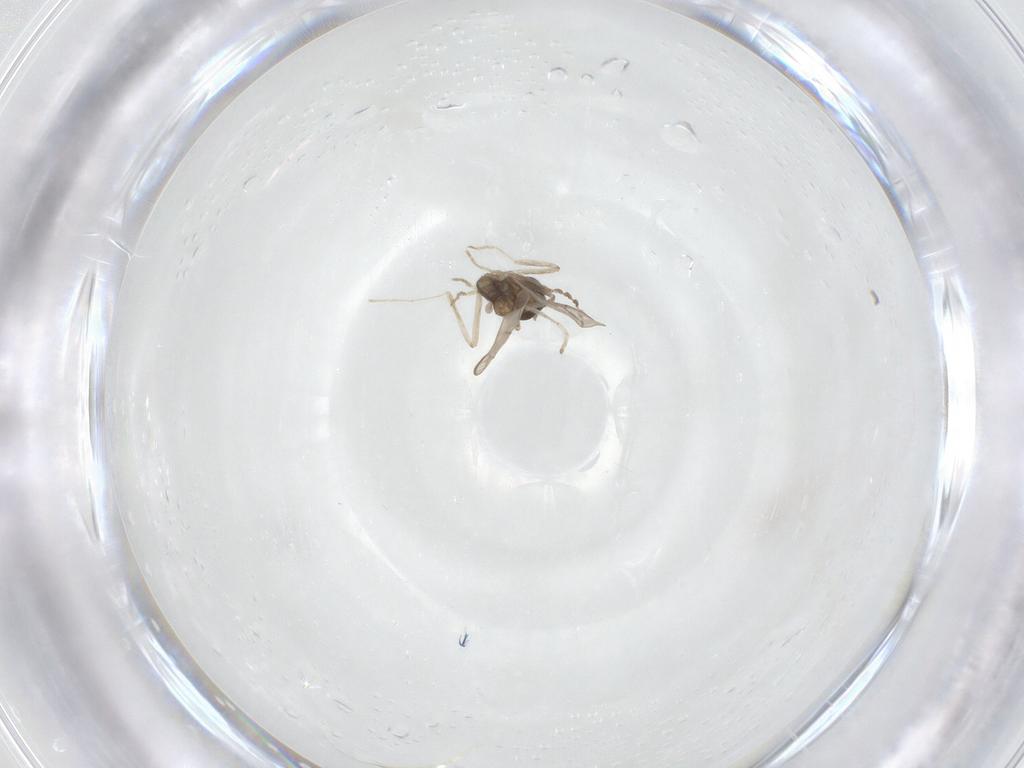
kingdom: Animalia
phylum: Arthropoda
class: Insecta
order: Diptera
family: Cecidomyiidae
